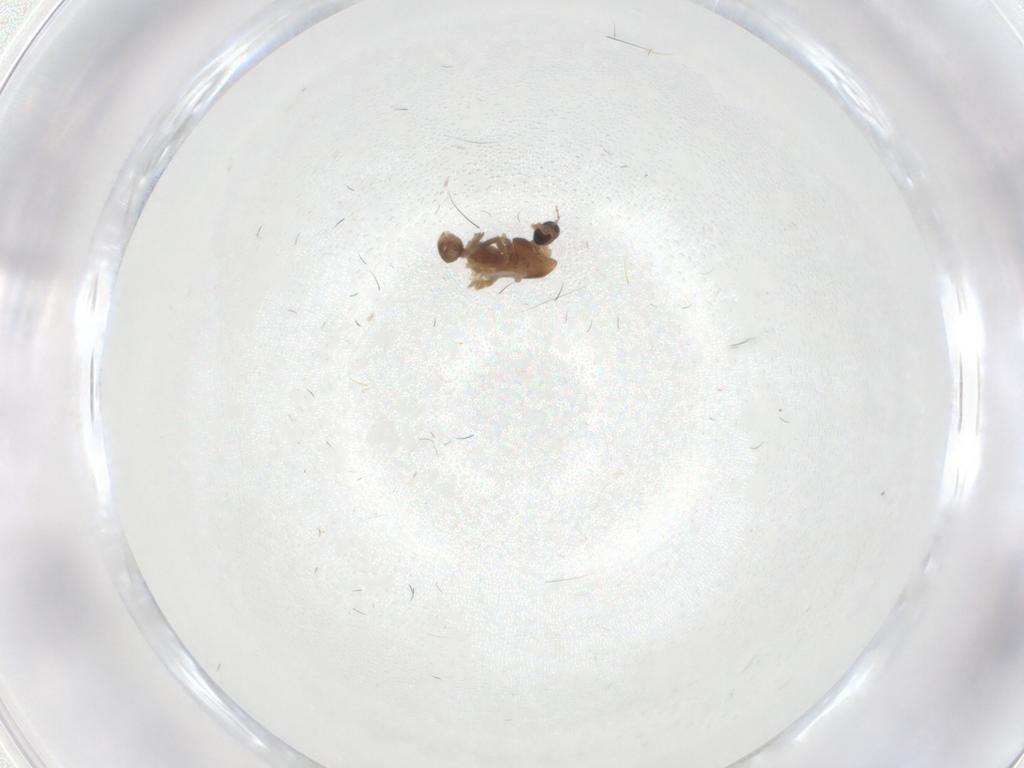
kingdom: Animalia
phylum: Arthropoda
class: Insecta
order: Diptera
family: Chironomidae
